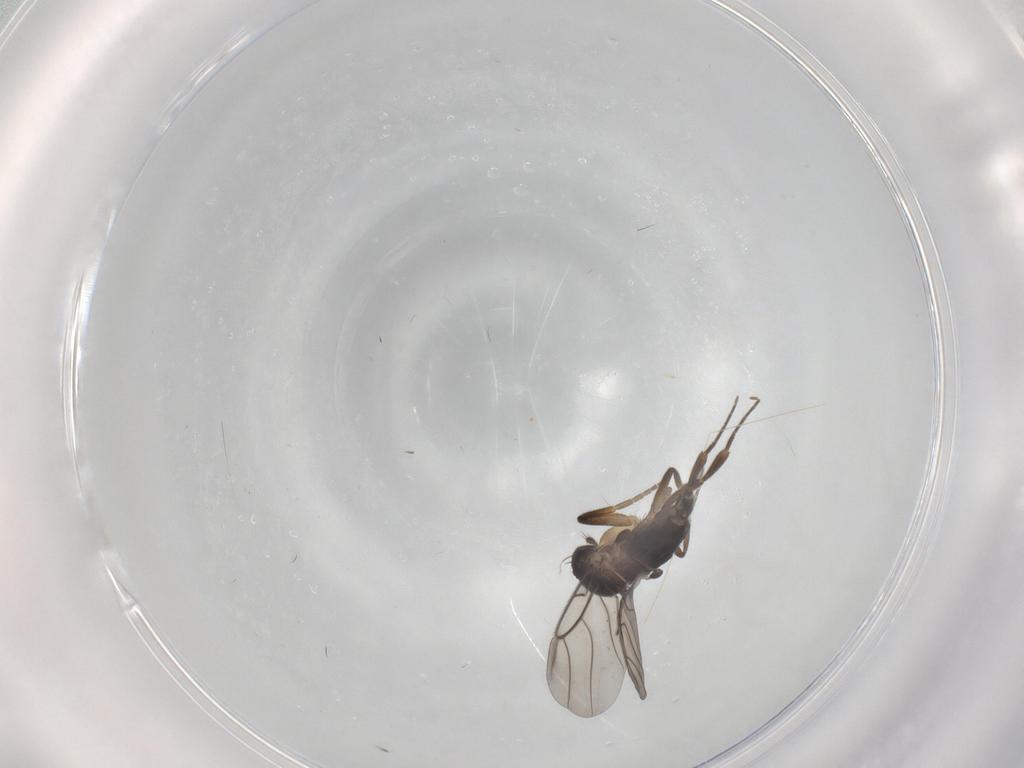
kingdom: Animalia
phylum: Arthropoda
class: Insecta
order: Diptera
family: Phoridae
